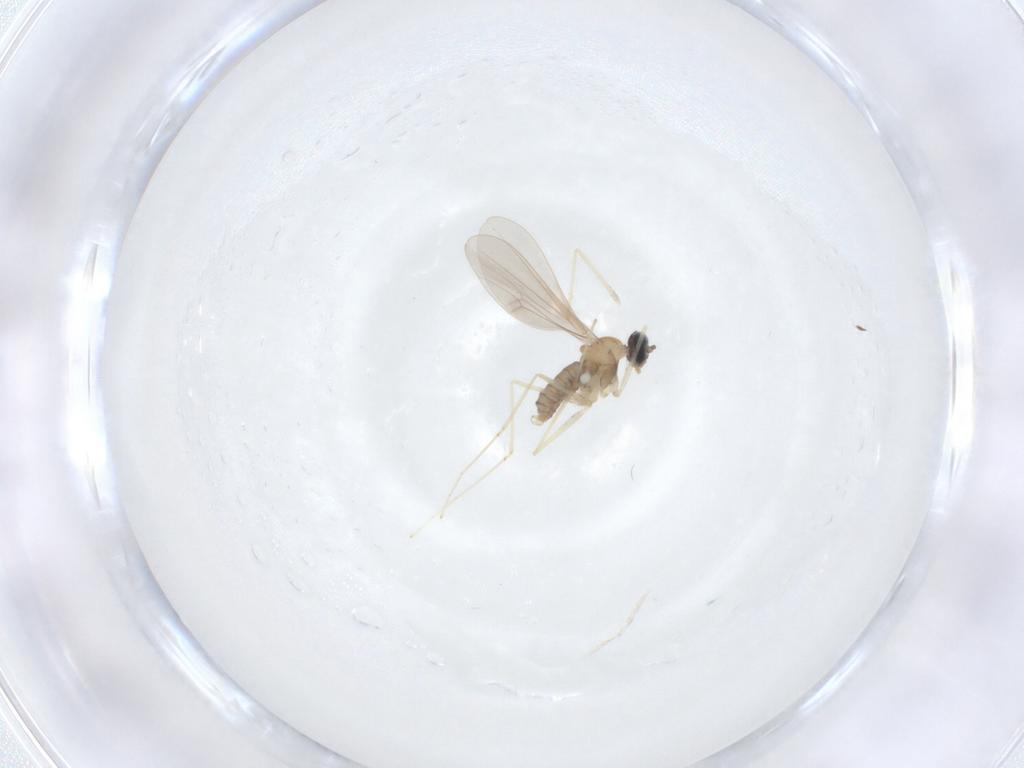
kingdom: Animalia
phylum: Arthropoda
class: Insecta
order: Diptera
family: Cecidomyiidae
